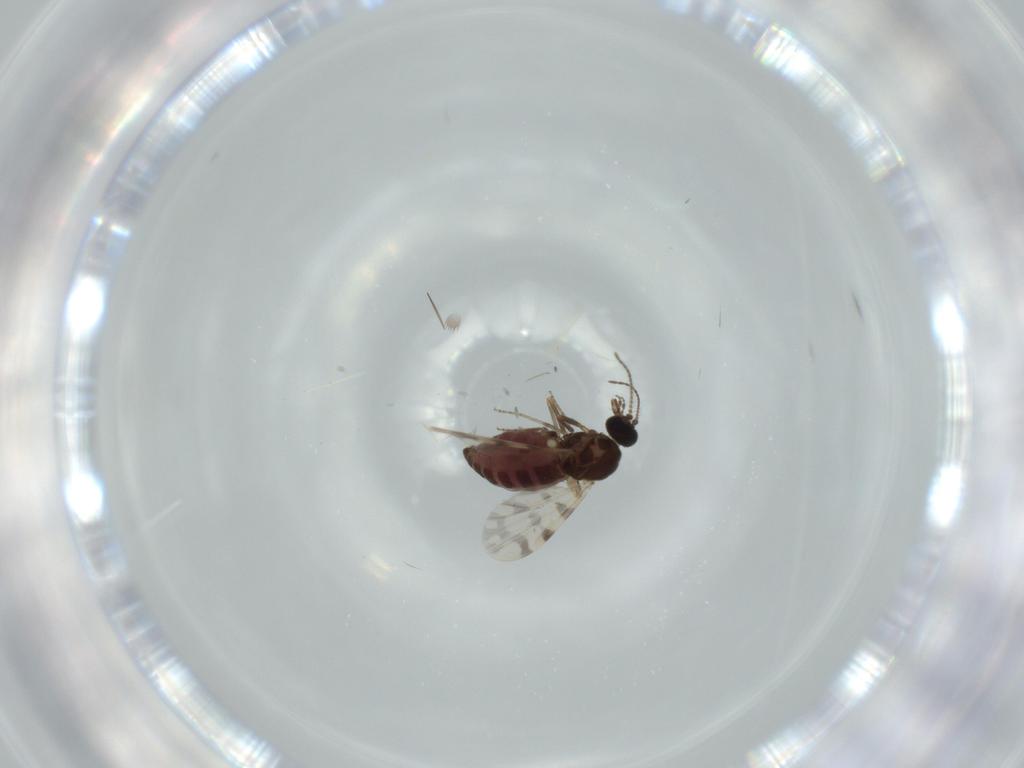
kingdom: Animalia
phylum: Arthropoda
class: Insecta
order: Diptera
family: Ceratopogonidae
